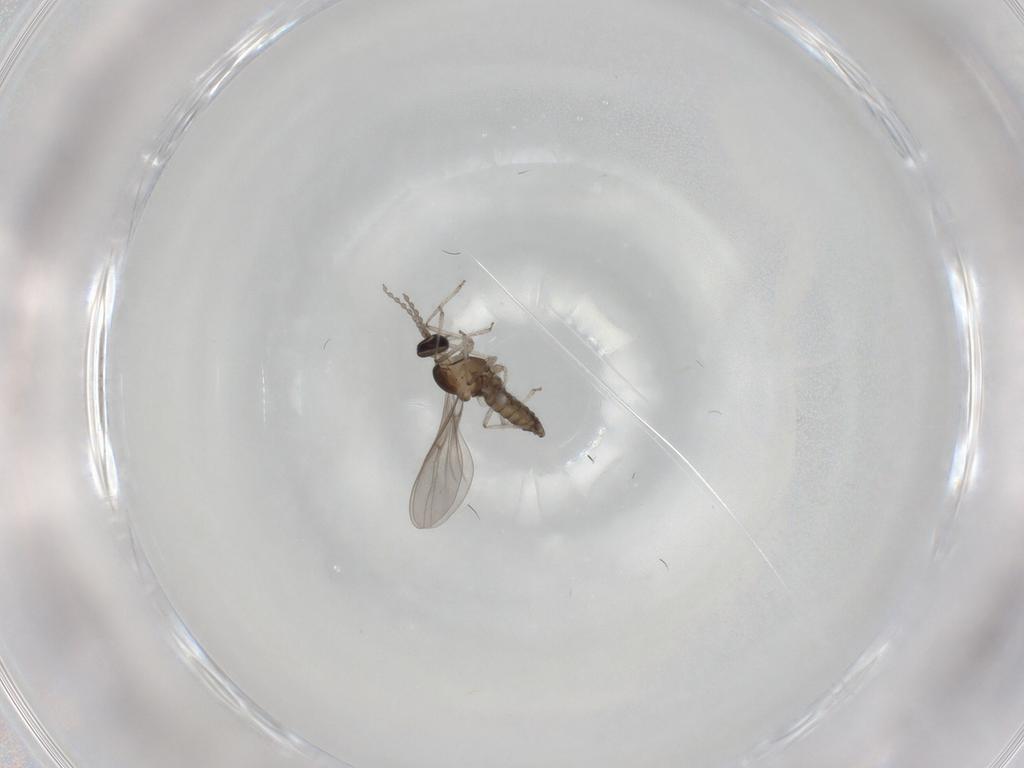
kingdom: Animalia
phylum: Arthropoda
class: Insecta
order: Diptera
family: Cecidomyiidae
